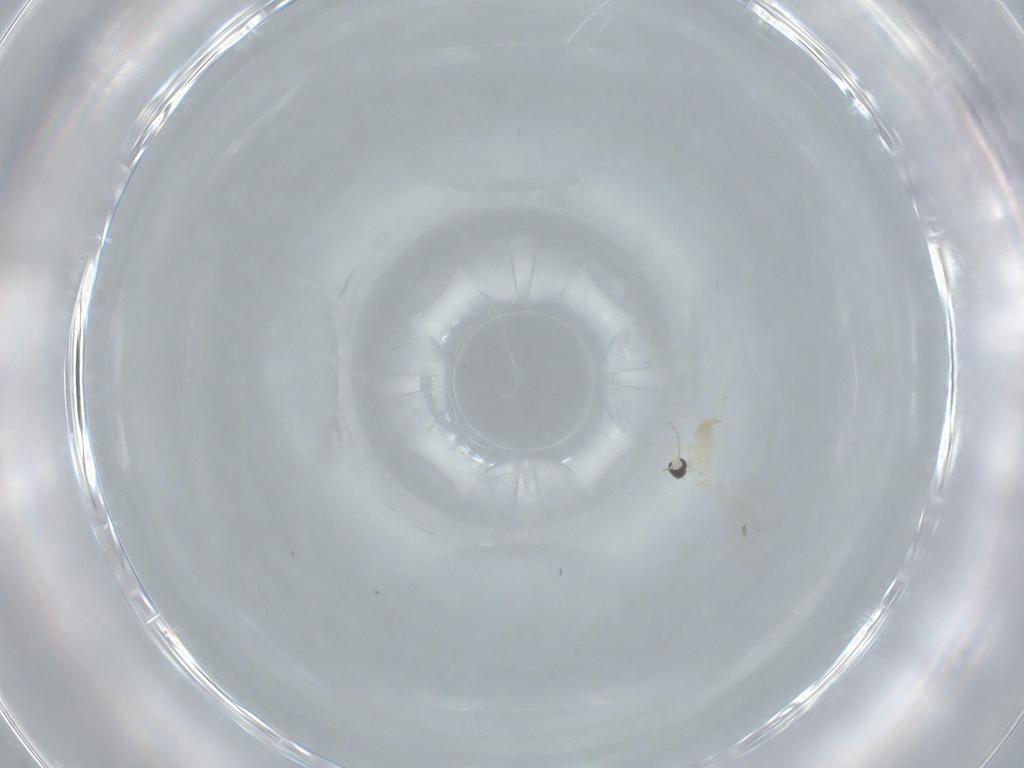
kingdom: Animalia
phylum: Arthropoda
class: Insecta
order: Diptera
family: Cecidomyiidae
